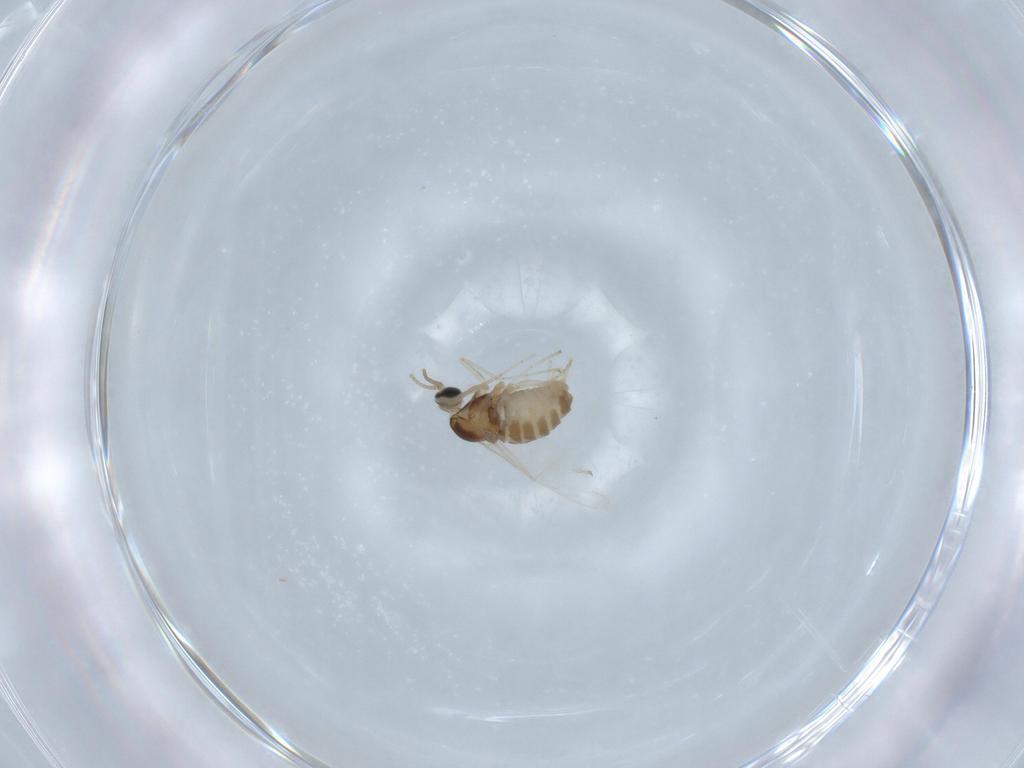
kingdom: Animalia
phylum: Arthropoda
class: Insecta
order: Diptera
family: Cecidomyiidae
